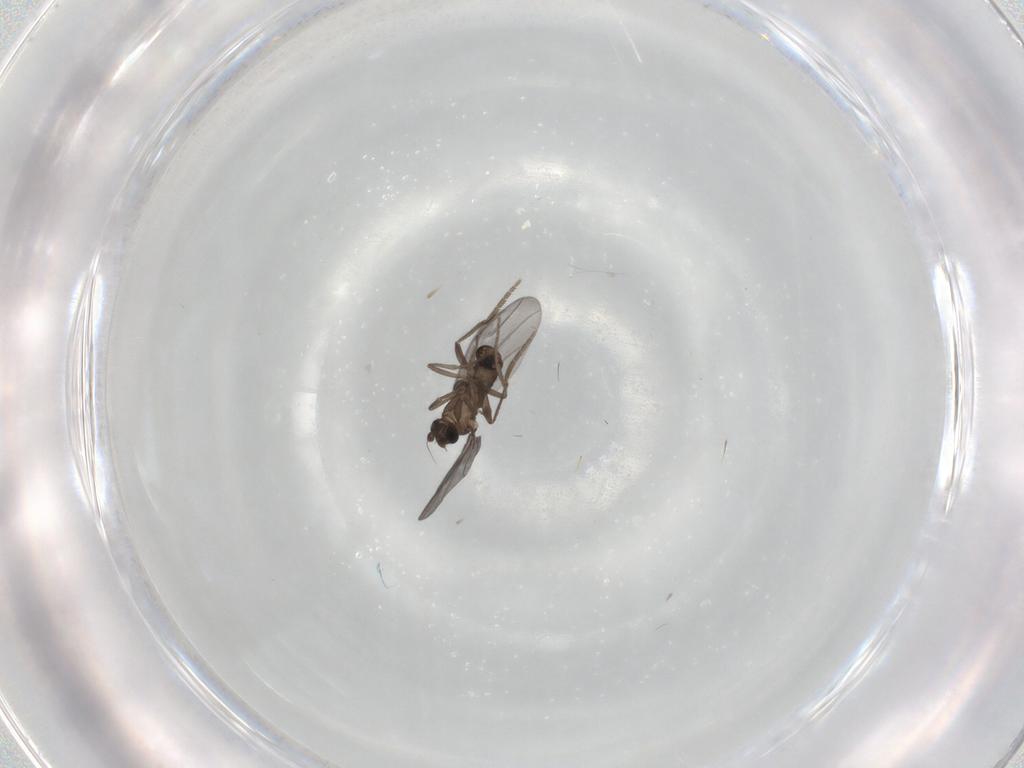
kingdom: Animalia
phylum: Arthropoda
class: Insecta
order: Diptera
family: Phoridae
